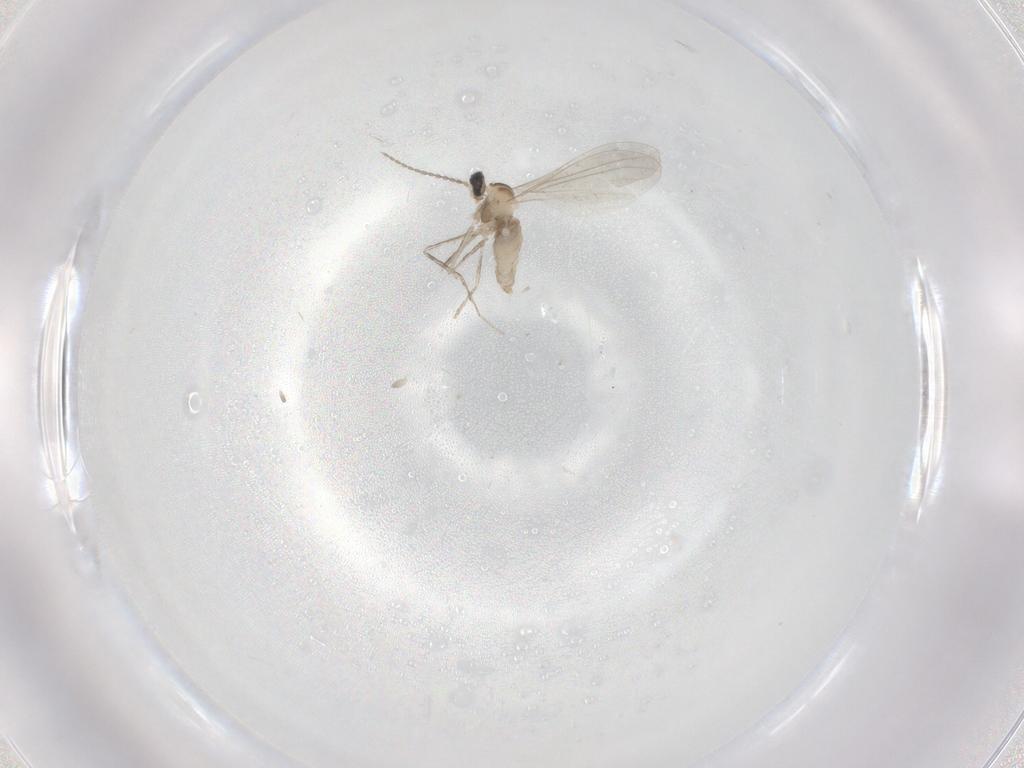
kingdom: Animalia
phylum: Arthropoda
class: Insecta
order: Diptera
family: Cecidomyiidae
